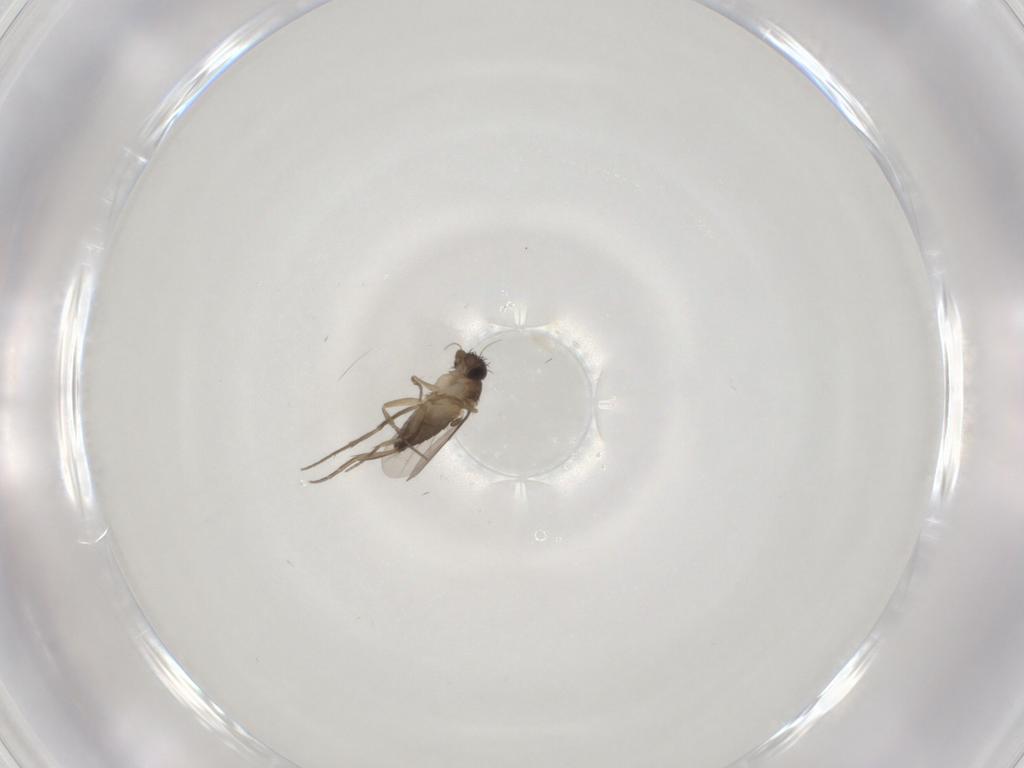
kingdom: Animalia
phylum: Arthropoda
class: Insecta
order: Diptera
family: Phoridae
